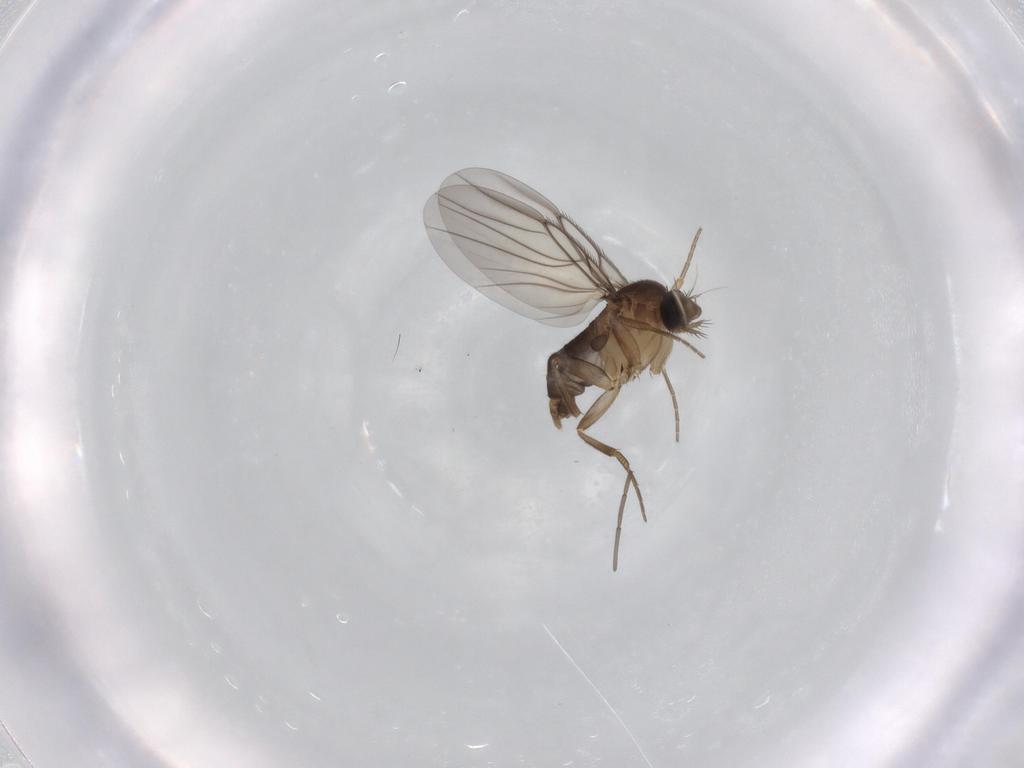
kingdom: Animalia
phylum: Arthropoda
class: Insecta
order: Diptera
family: Phoridae
